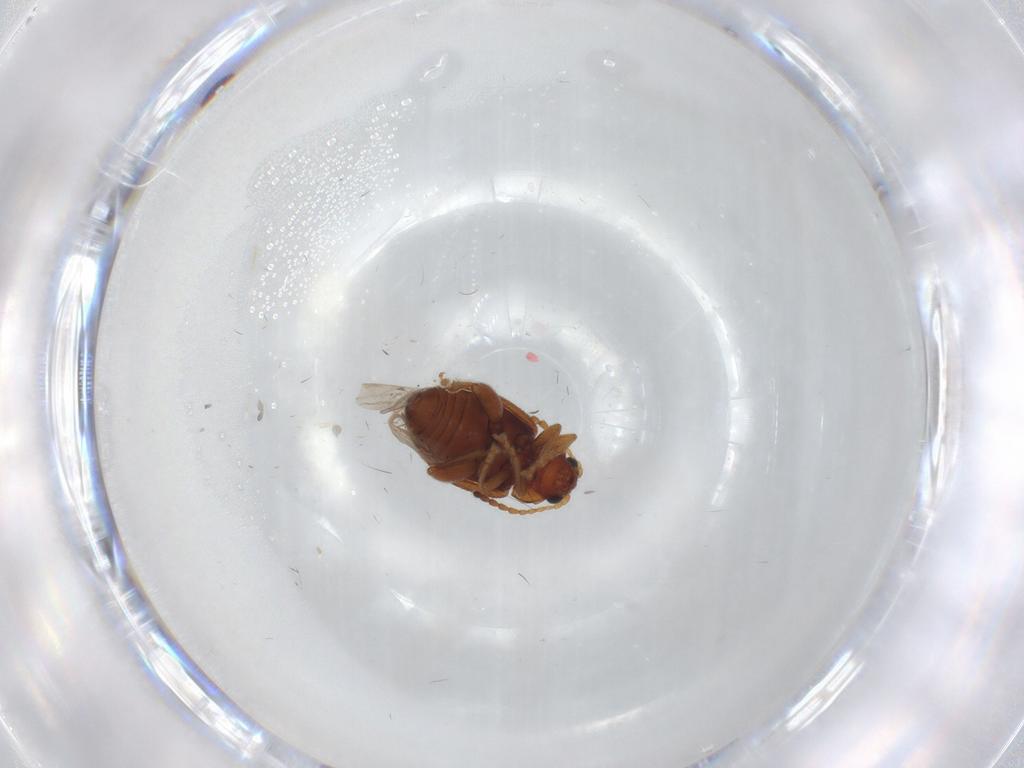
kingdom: Animalia
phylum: Arthropoda
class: Insecta
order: Coleoptera
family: Chrysomelidae
